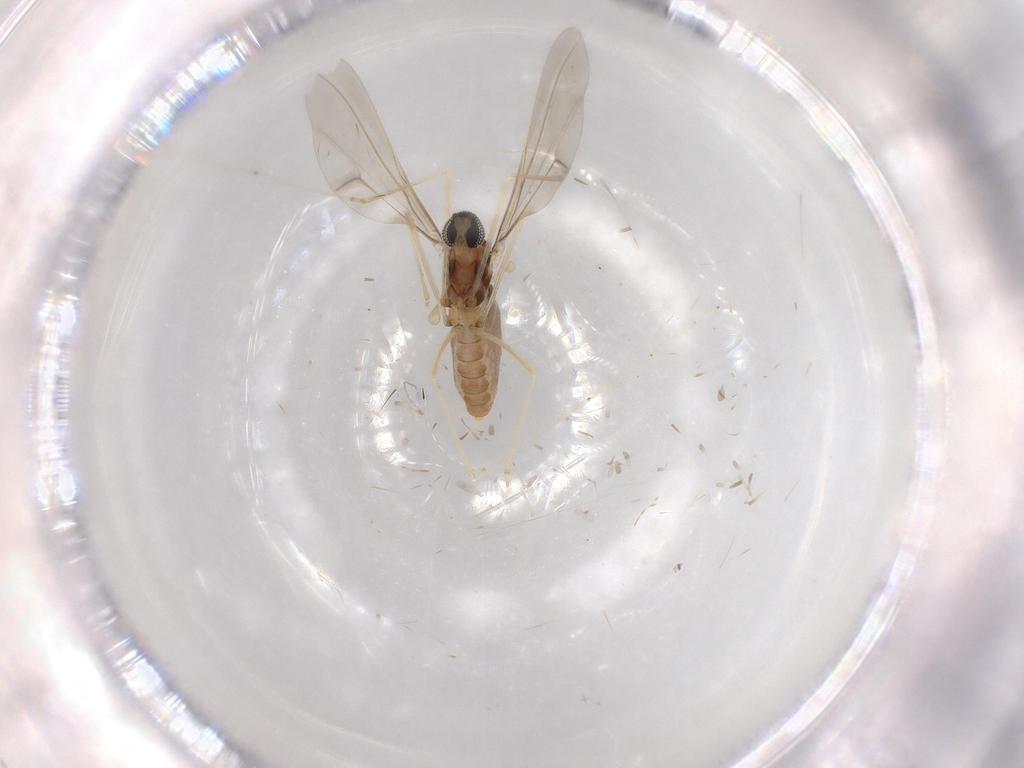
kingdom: Animalia
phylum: Arthropoda
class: Insecta
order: Diptera
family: Cecidomyiidae
